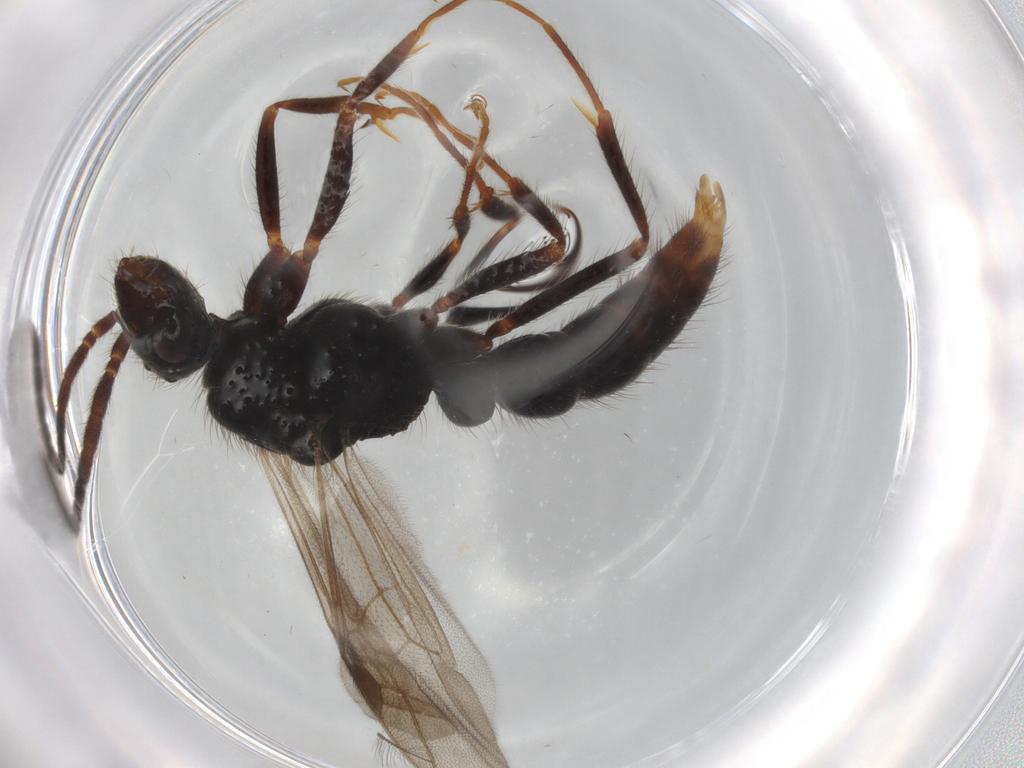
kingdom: Animalia
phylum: Arthropoda
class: Insecta
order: Hymenoptera
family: Formicidae
